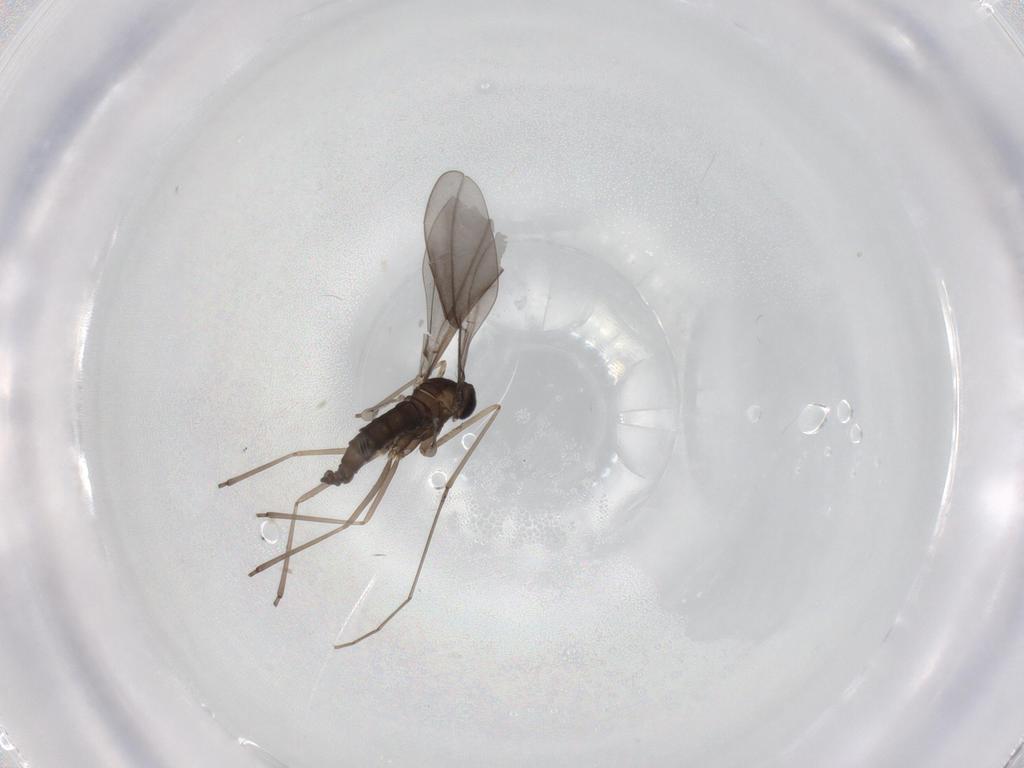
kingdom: Animalia
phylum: Arthropoda
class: Insecta
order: Diptera
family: Cecidomyiidae
